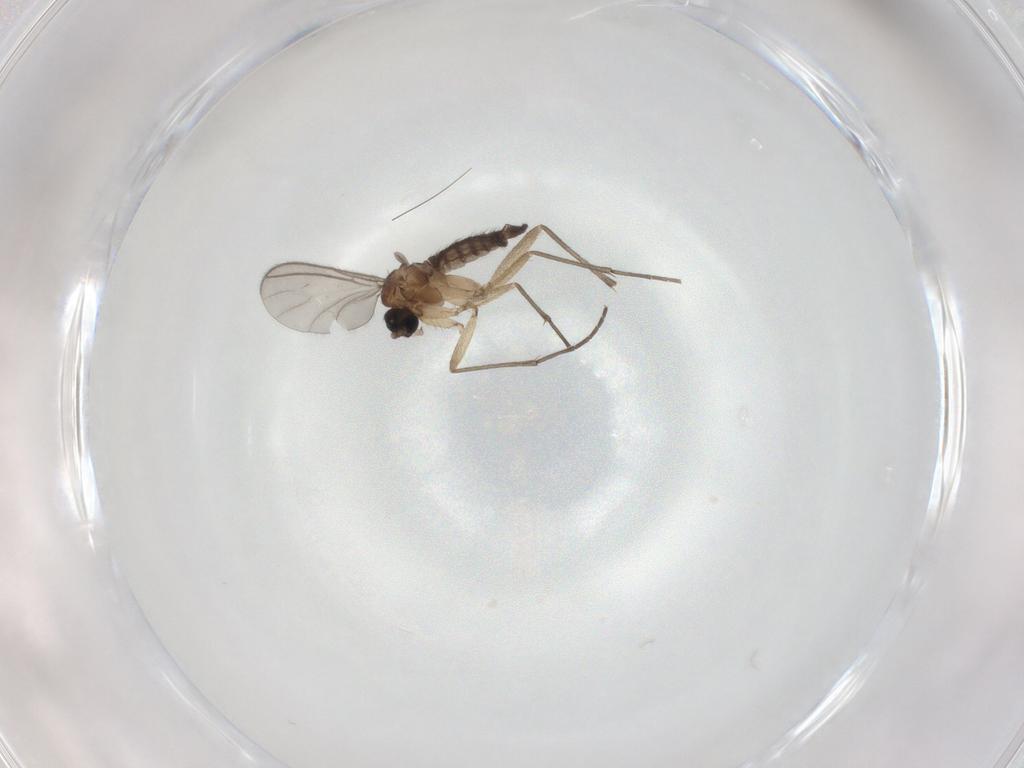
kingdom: Animalia
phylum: Arthropoda
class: Insecta
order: Diptera
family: Sciaridae
